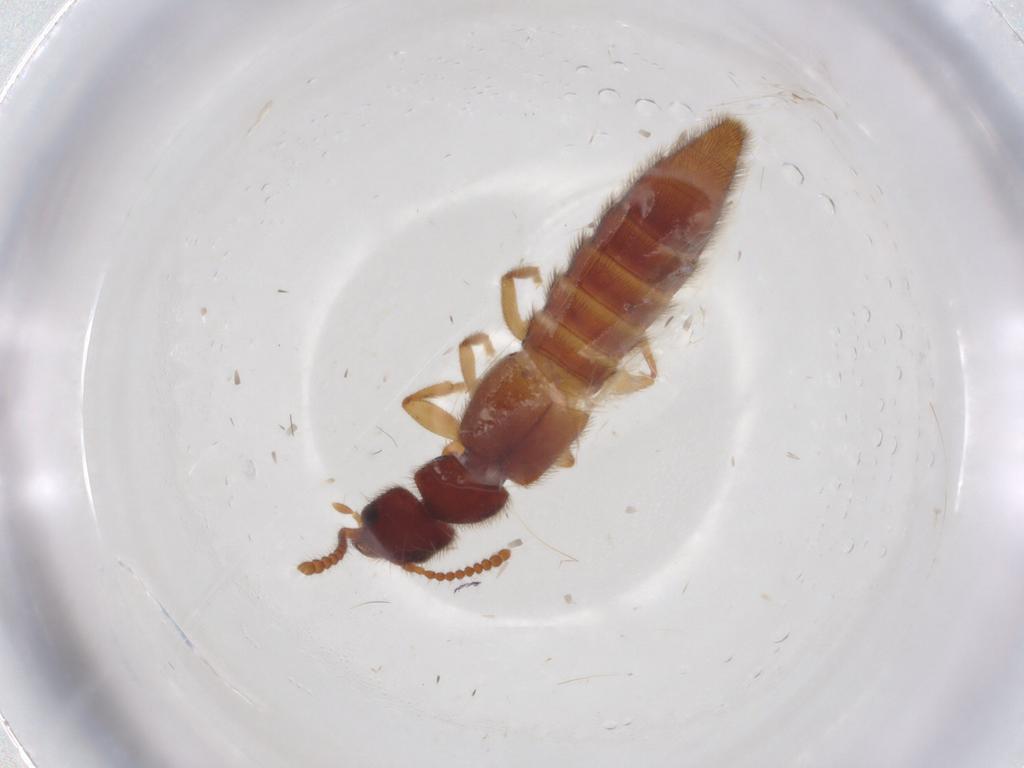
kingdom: Animalia
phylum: Arthropoda
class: Insecta
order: Coleoptera
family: Staphylinidae
